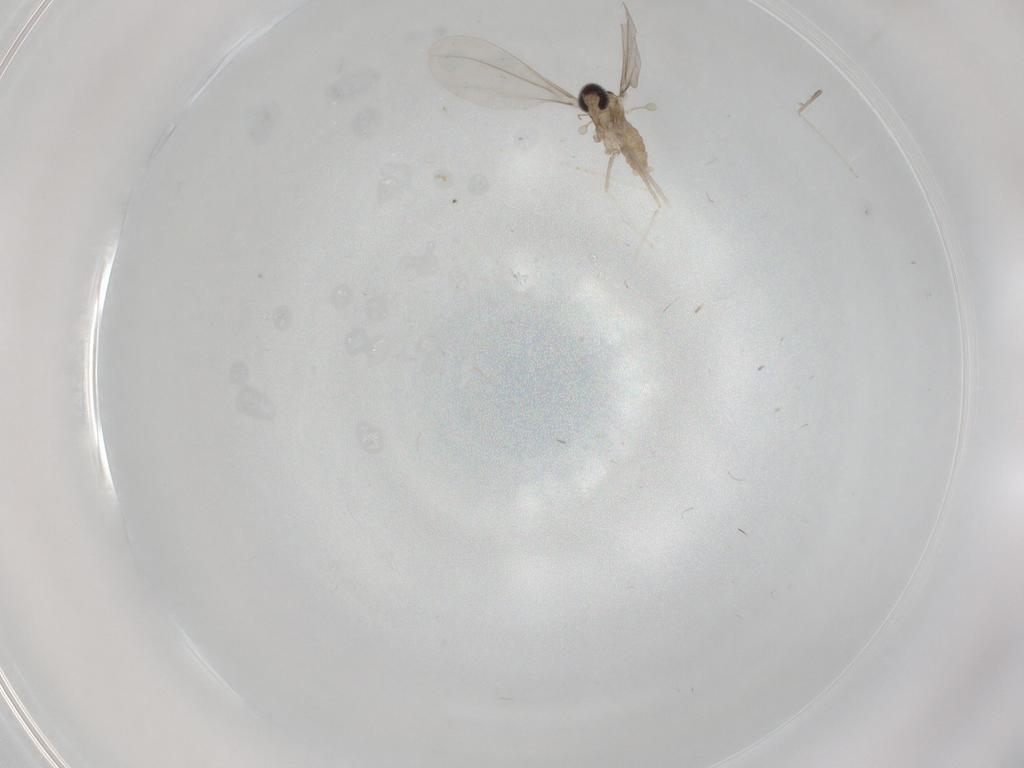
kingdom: Animalia
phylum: Arthropoda
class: Insecta
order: Diptera
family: Cecidomyiidae
